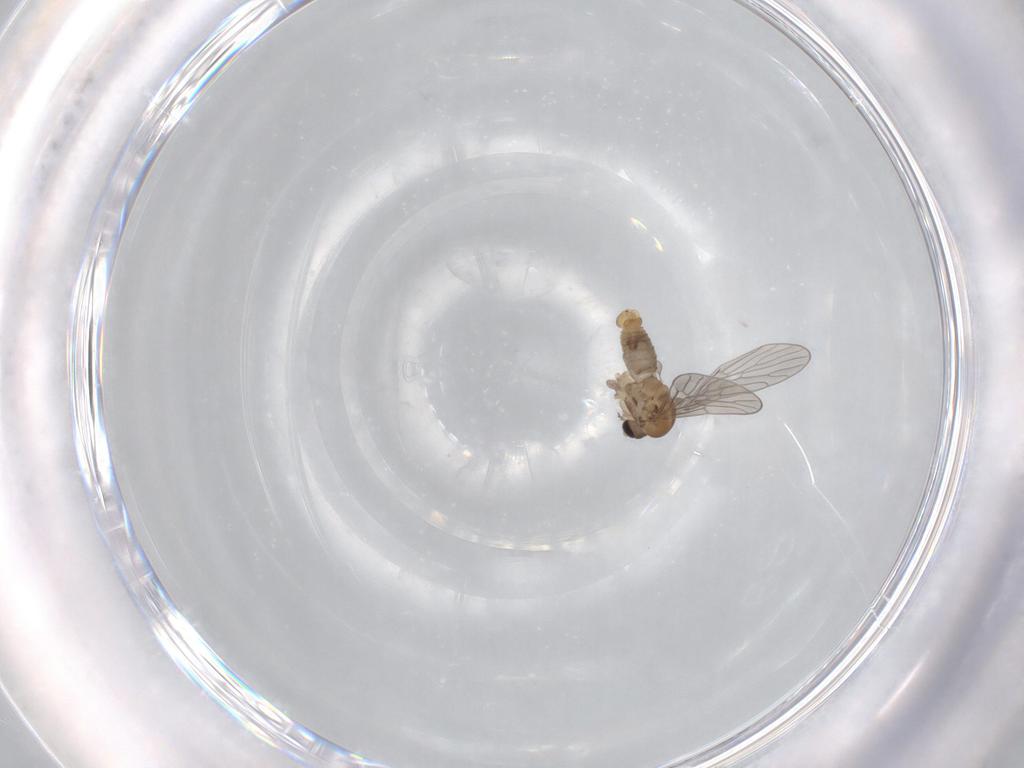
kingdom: Animalia
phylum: Arthropoda
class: Insecta
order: Diptera
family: Psychodidae
